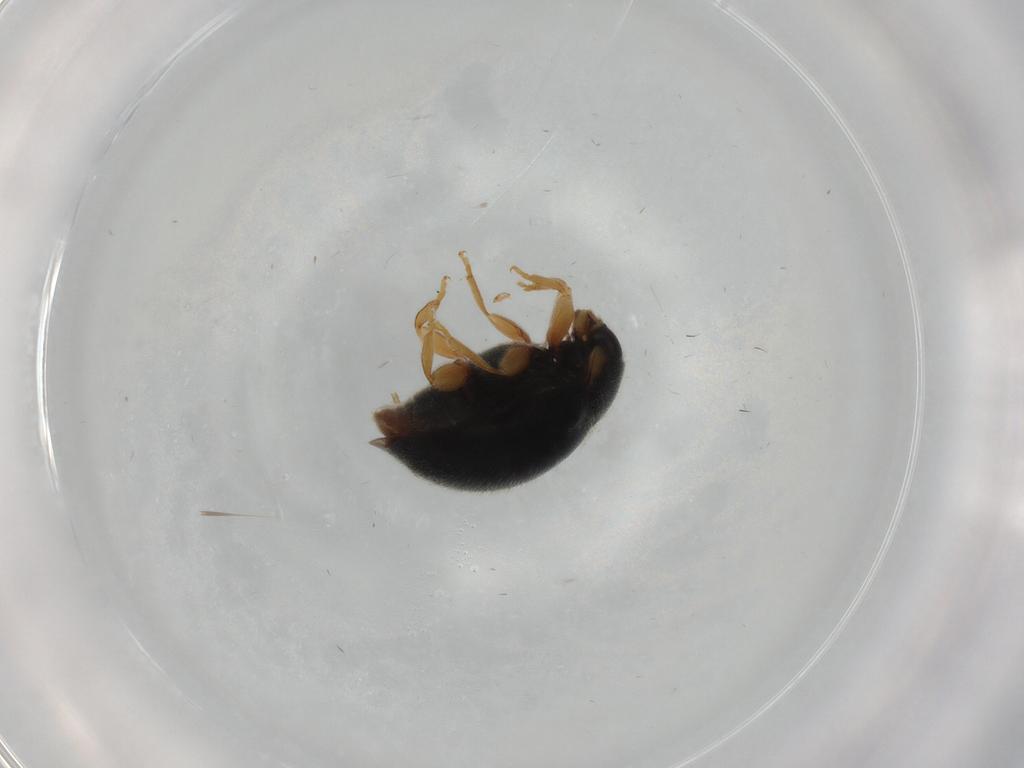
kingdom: Animalia
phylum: Arthropoda
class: Insecta
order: Coleoptera
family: Coccinellidae
